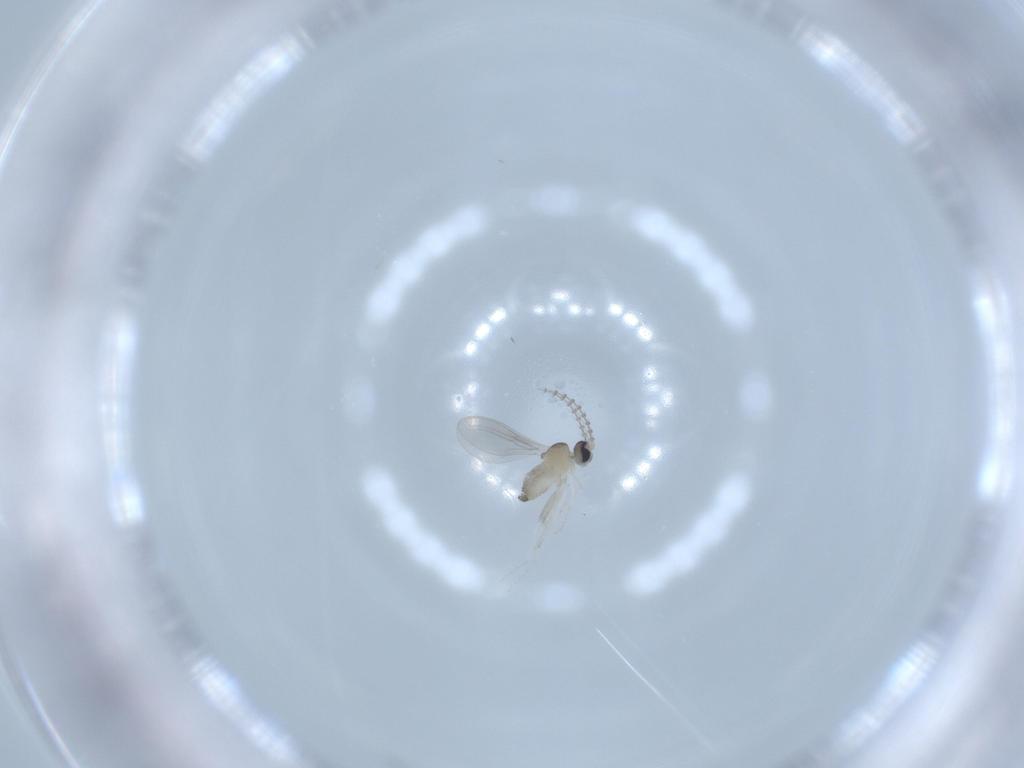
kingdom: Animalia
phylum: Arthropoda
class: Insecta
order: Diptera
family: Cecidomyiidae
